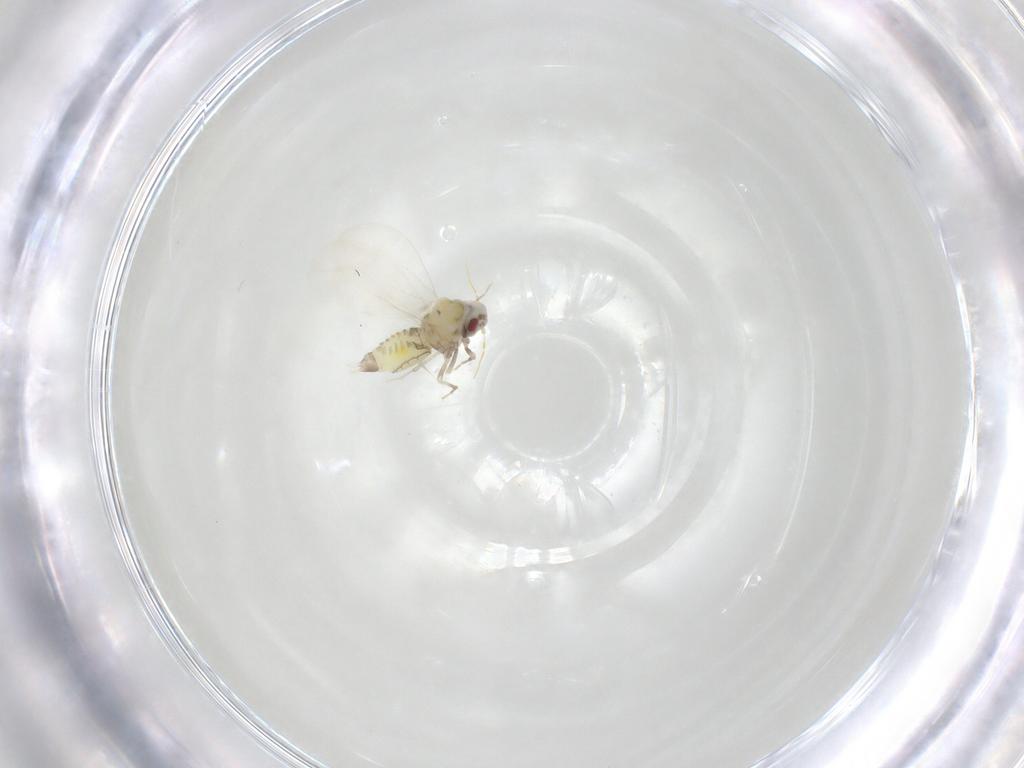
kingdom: Animalia
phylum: Arthropoda
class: Insecta
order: Hemiptera
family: Aleyrodidae
